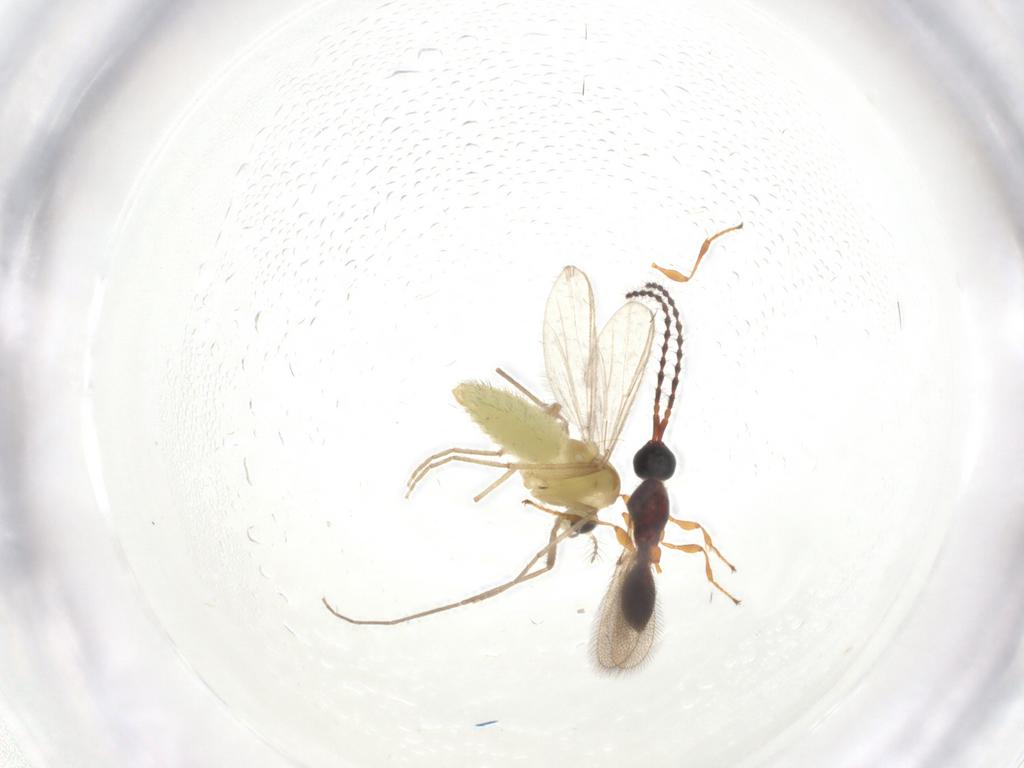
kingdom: Animalia
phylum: Arthropoda
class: Insecta
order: Diptera
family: Chironomidae
